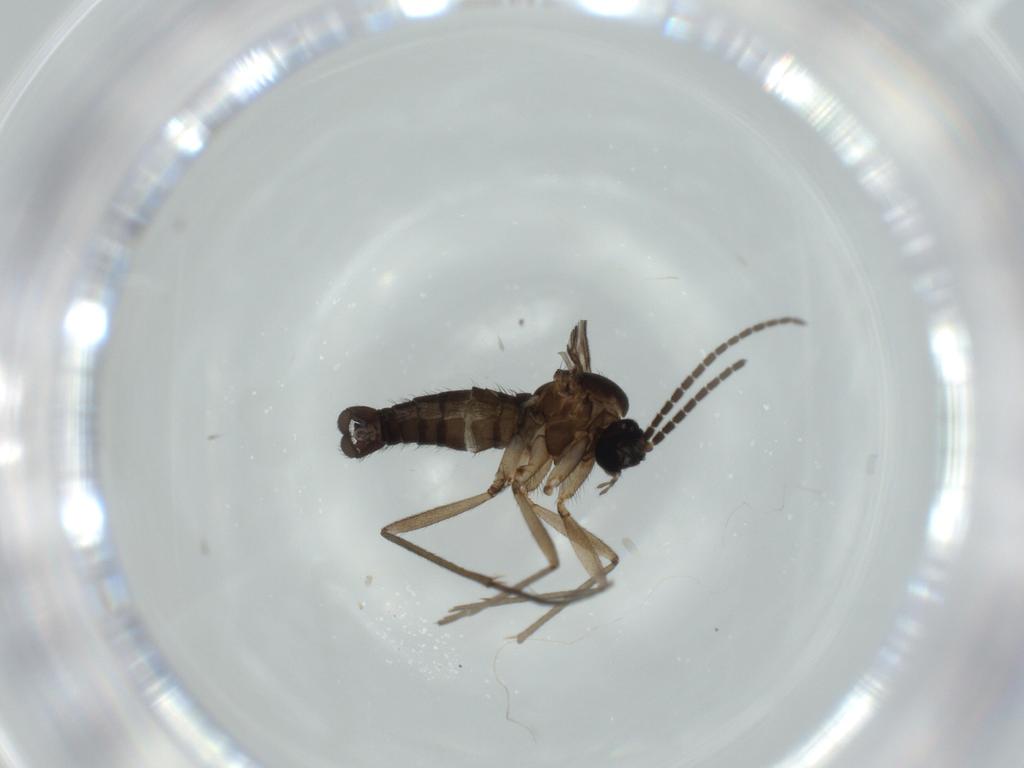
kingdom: Animalia
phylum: Arthropoda
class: Insecta
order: Diptera
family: Sciaridae
